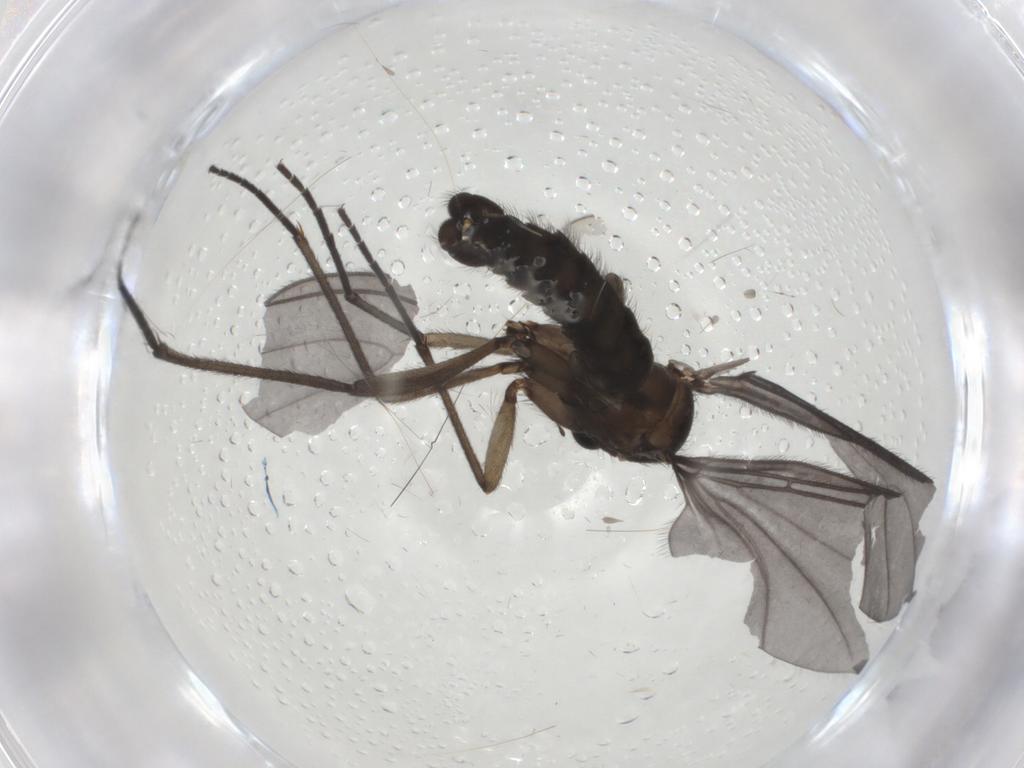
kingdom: Animalia
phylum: Arthropoda
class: Insecta
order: Diptera
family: Sciaridae
